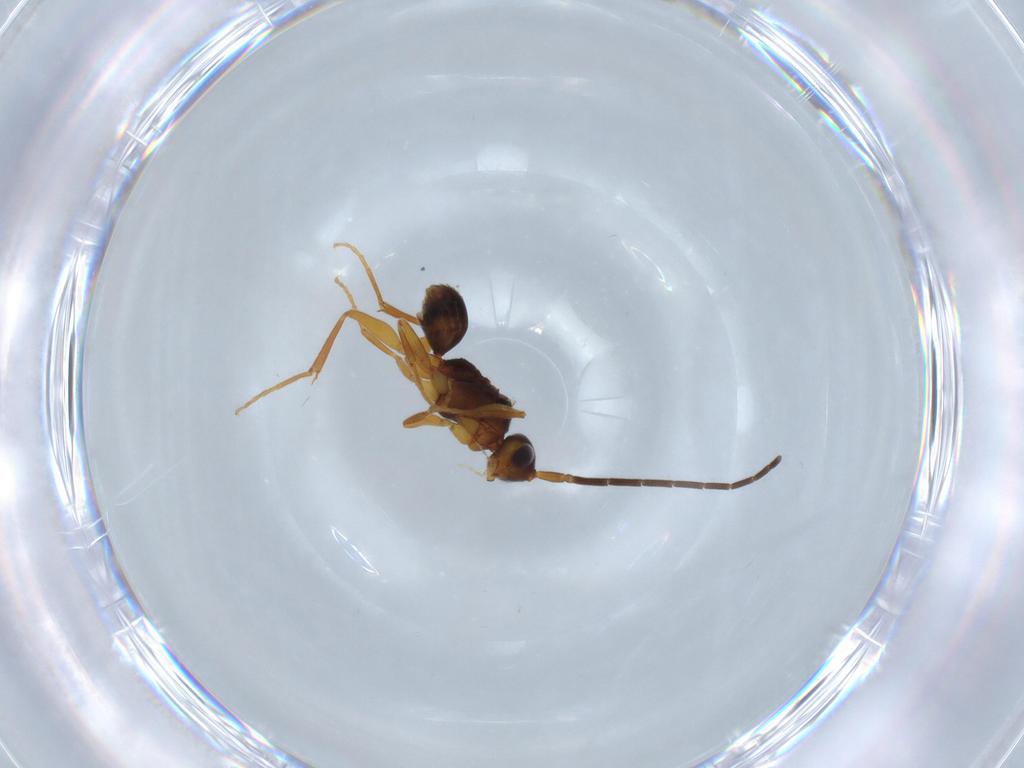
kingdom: Animalia
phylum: Arthropoda
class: Insecta
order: Hymenoptera
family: Embolemidae
